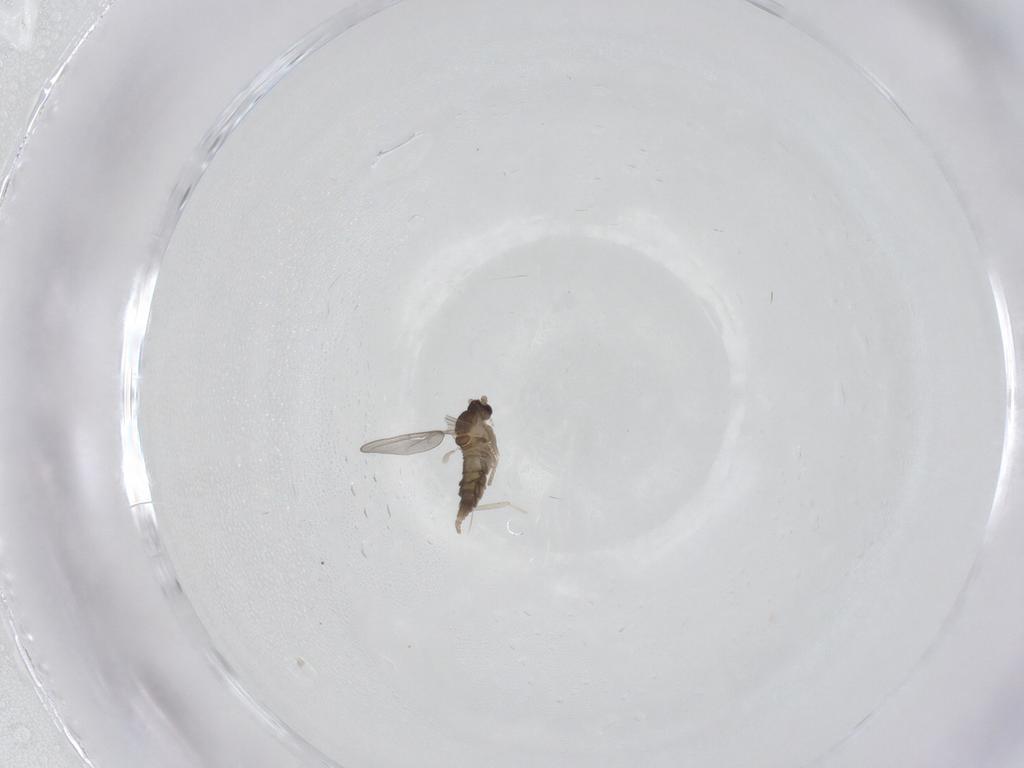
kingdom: Animalia
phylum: Arthropoda
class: Insecta
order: Diptera
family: Cecidomyiidae
